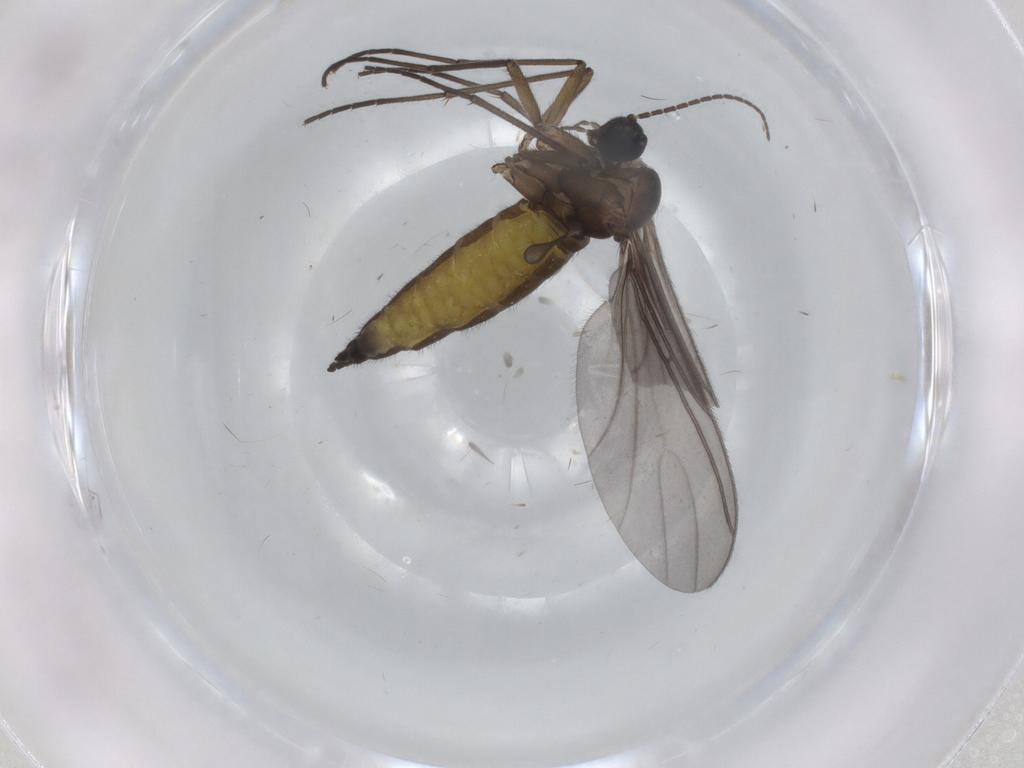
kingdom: Animalia
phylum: Arthropoda
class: Insecta
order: Diptera
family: Sciaridae
